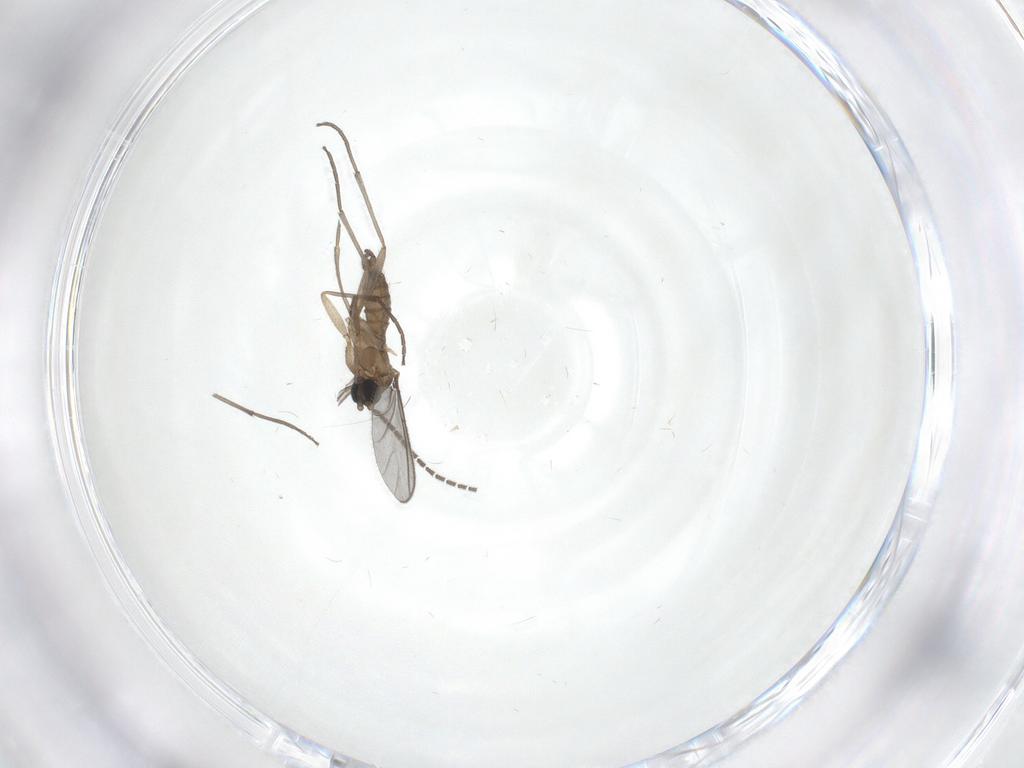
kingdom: Animalia
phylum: Arthropoda
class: Insecta
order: Diptera
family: Sciaridae
